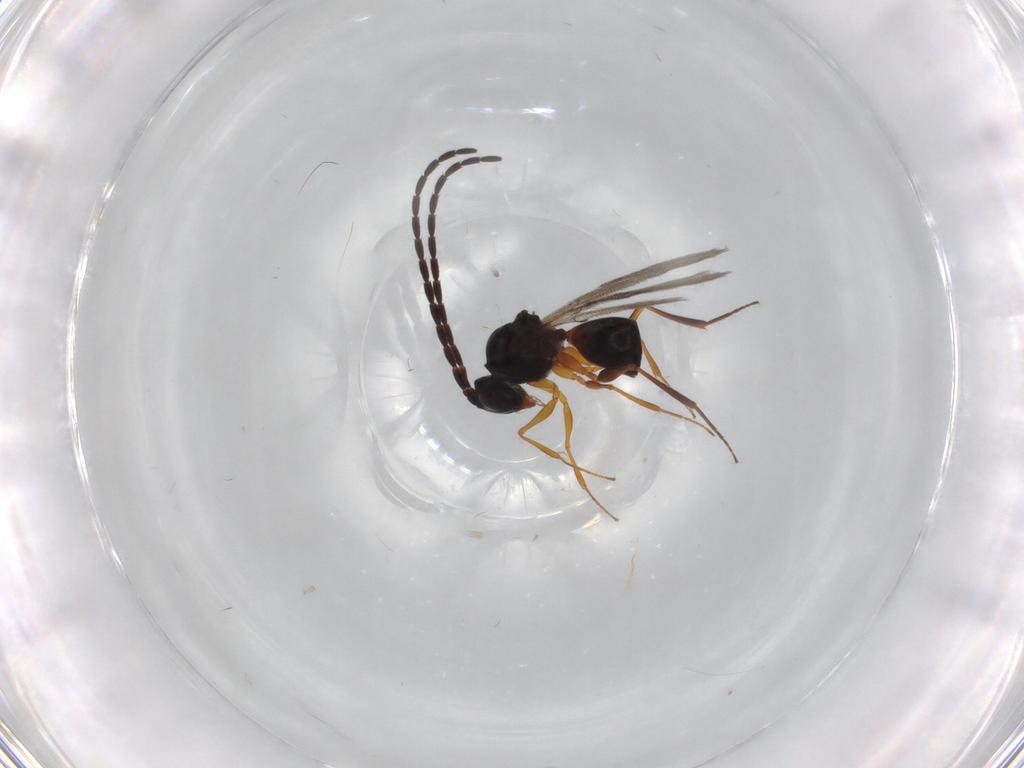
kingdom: Animalia
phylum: Arthropoda
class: Insecta
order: Hymenoptera
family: Figitidae
